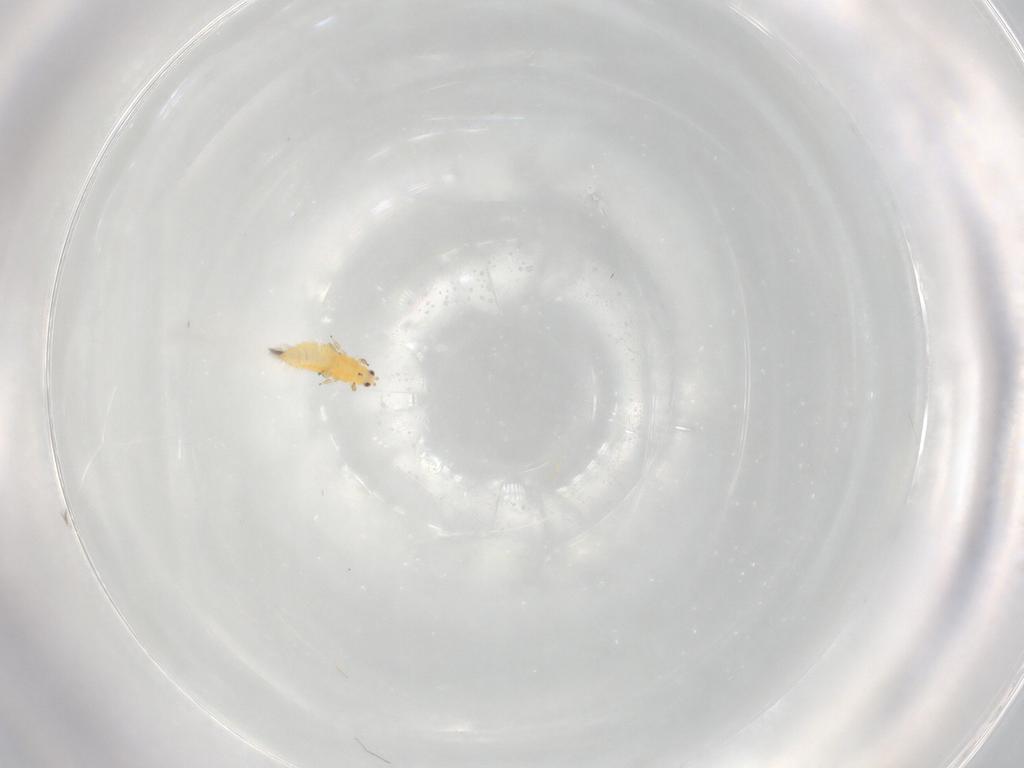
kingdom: Animalia
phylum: Arthropoda
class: Insecta
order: Thysanoptera
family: Thripidae
